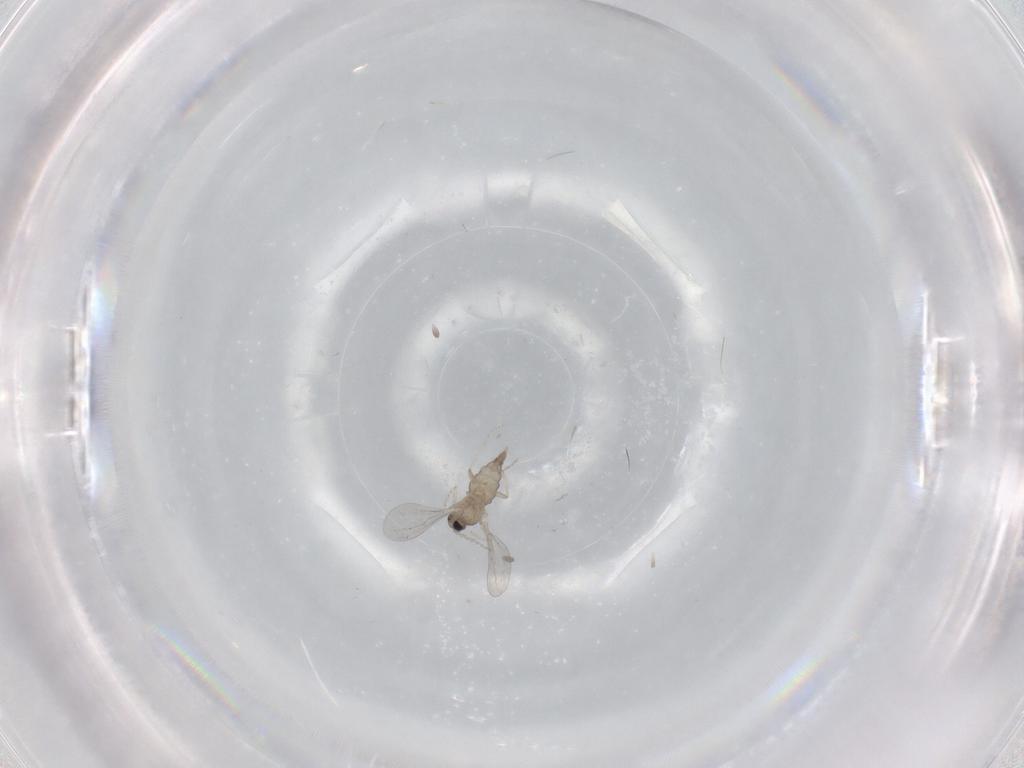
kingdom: Animalia
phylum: Arthropoda
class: Insecta
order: Diptera
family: Cecidomyiidae
